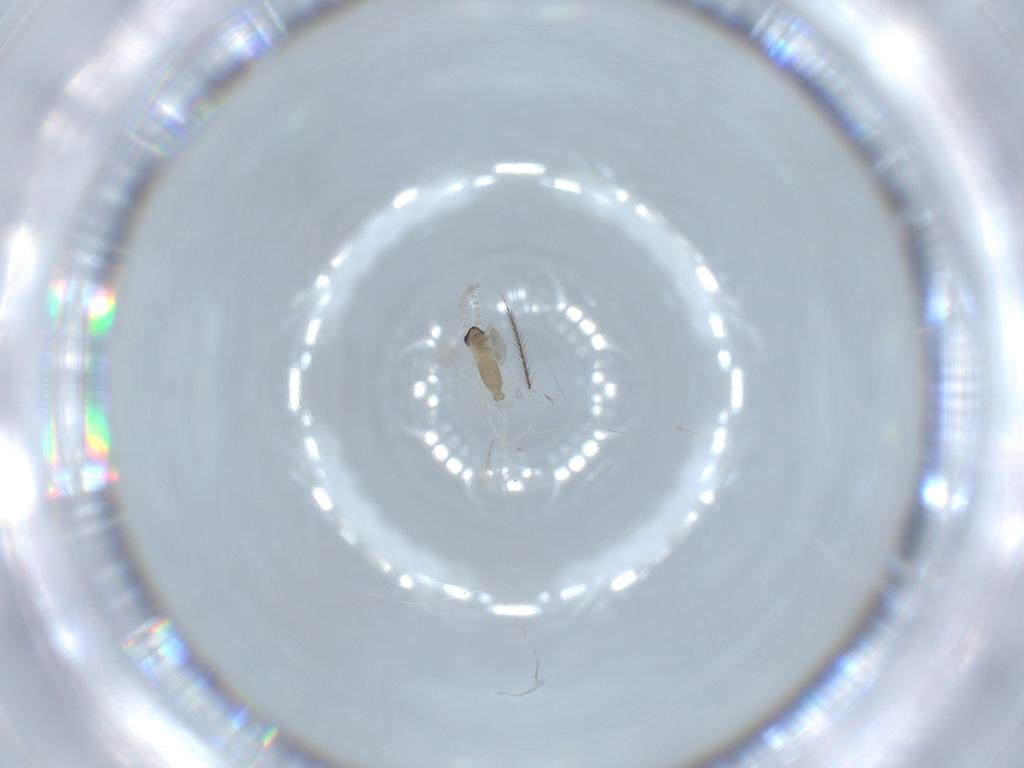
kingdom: Animalia
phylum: Arthropoda
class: Insecta
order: Diptera
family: Cecidomyiidae
